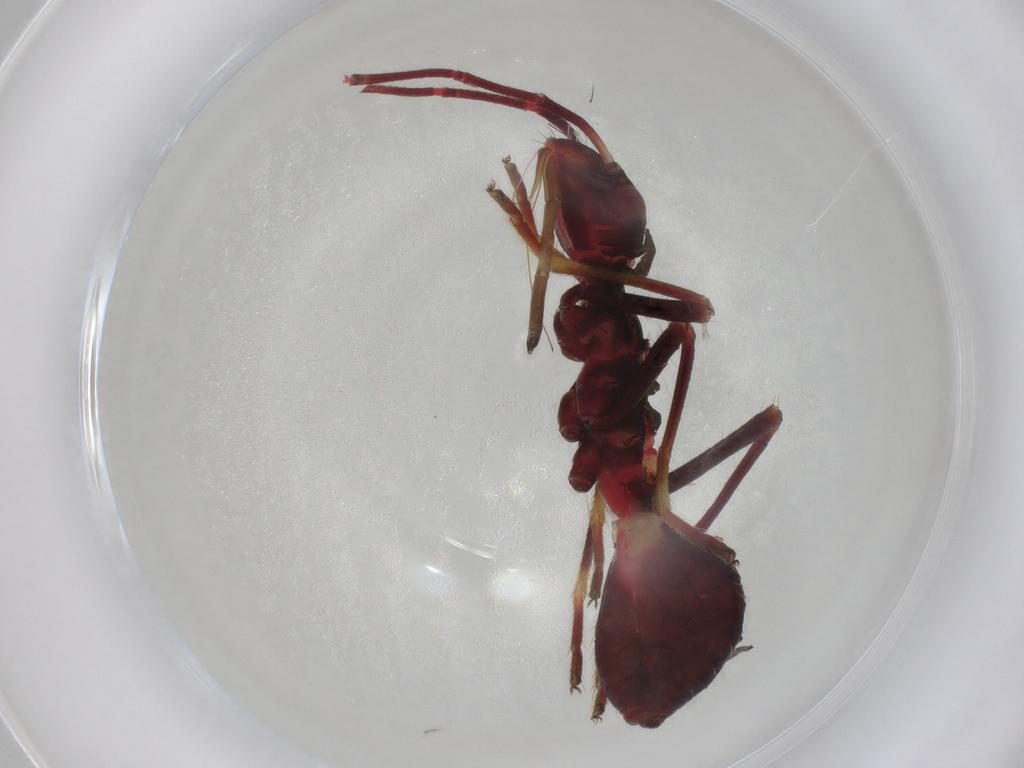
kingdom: Animalia
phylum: Arthropoda
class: Insecta
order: Hemiptera
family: Alydidae
